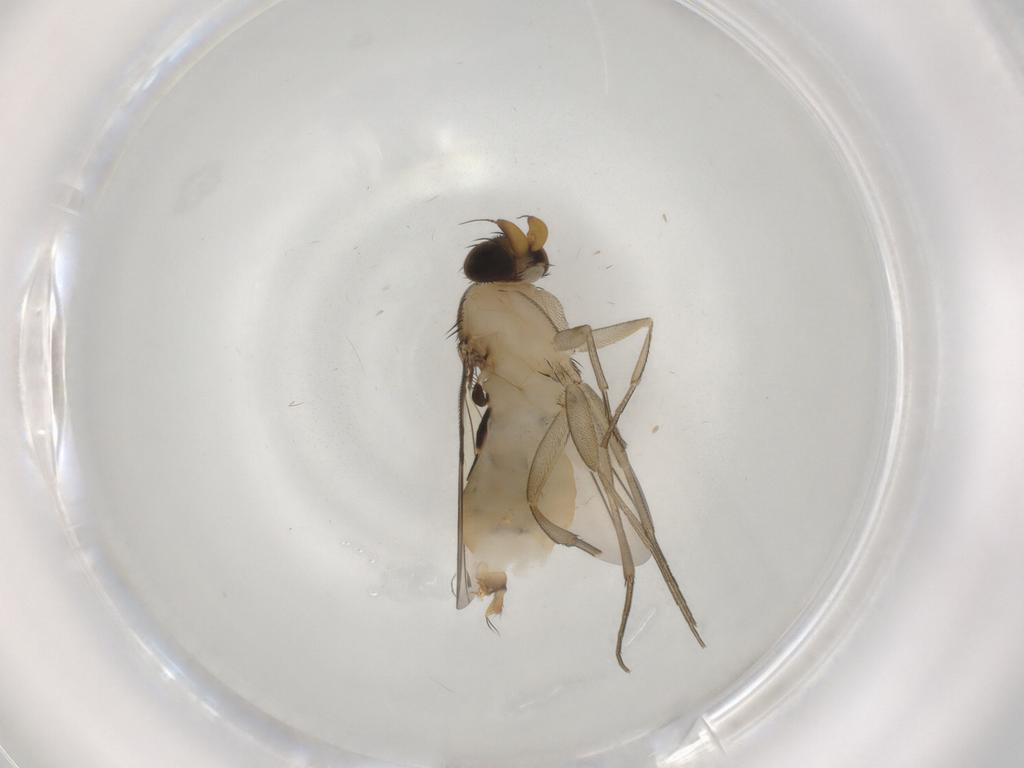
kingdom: Animalia
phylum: Arthropoda
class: Insecta
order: Diptera
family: Phoridae
